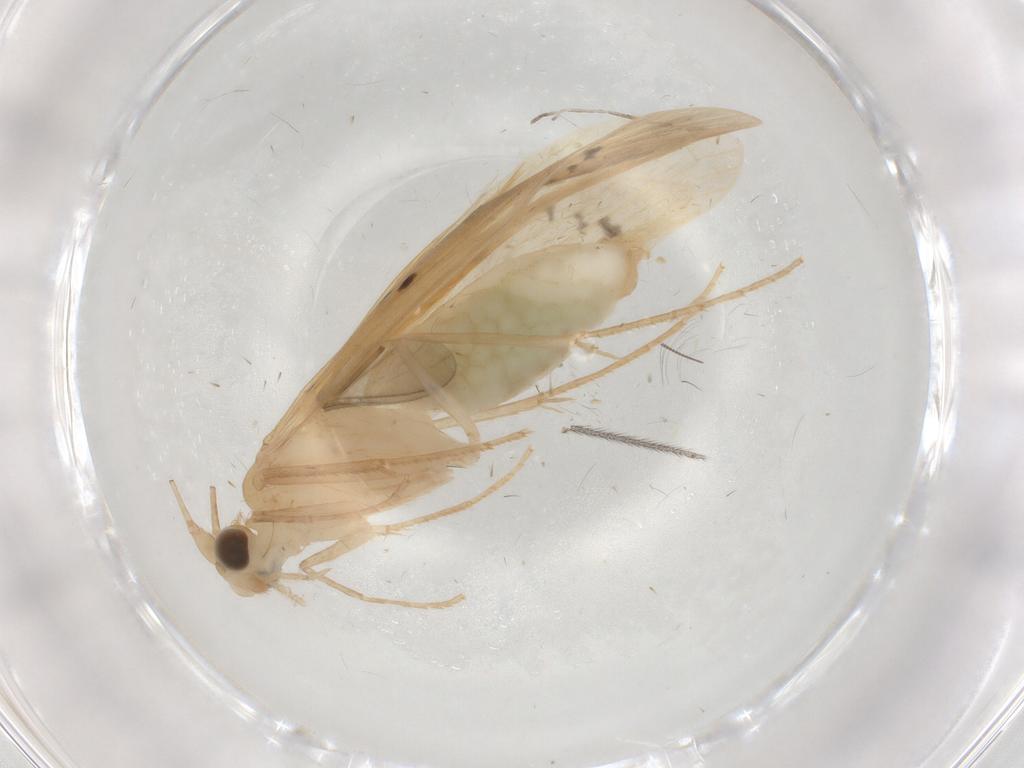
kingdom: Animalia
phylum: Arthropoda
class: Insecta
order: Trichoptera
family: Leptoceridae
